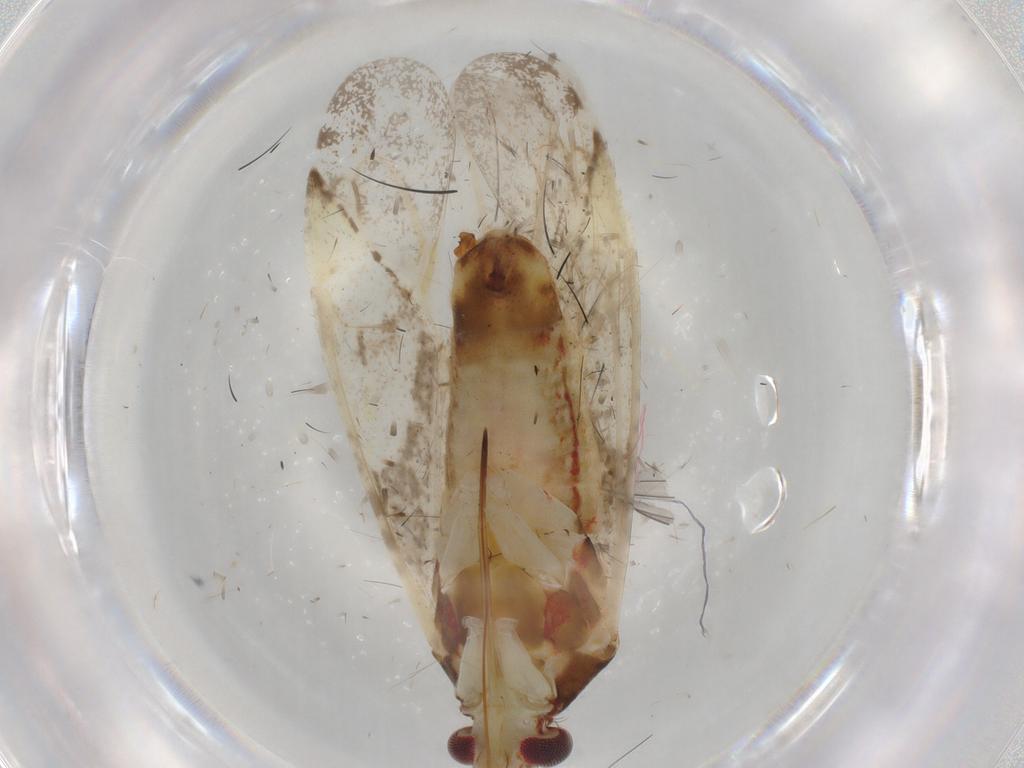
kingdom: Animalia
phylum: Arthropoda
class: Insecta
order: Hemiptera
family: Miridae
